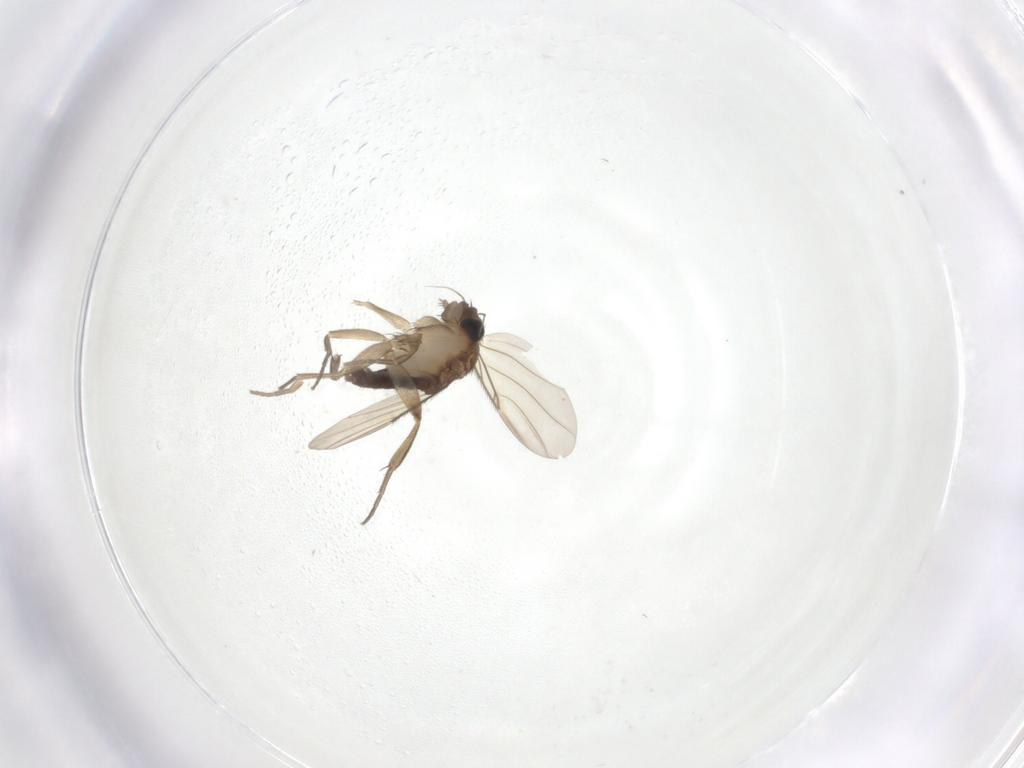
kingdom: Animalia
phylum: Arthropoda
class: Insecta
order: Diptera
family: Phoridae
